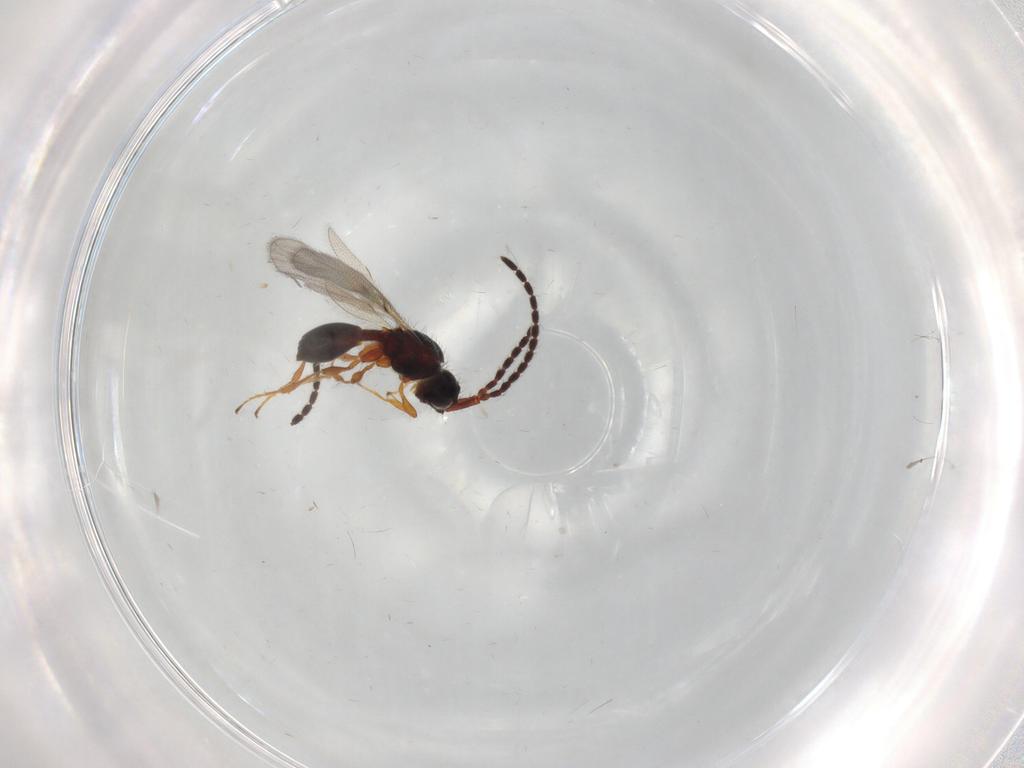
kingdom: Animalia
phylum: Arthropoda
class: Insecta
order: Hymenoptera
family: Diapriidae
